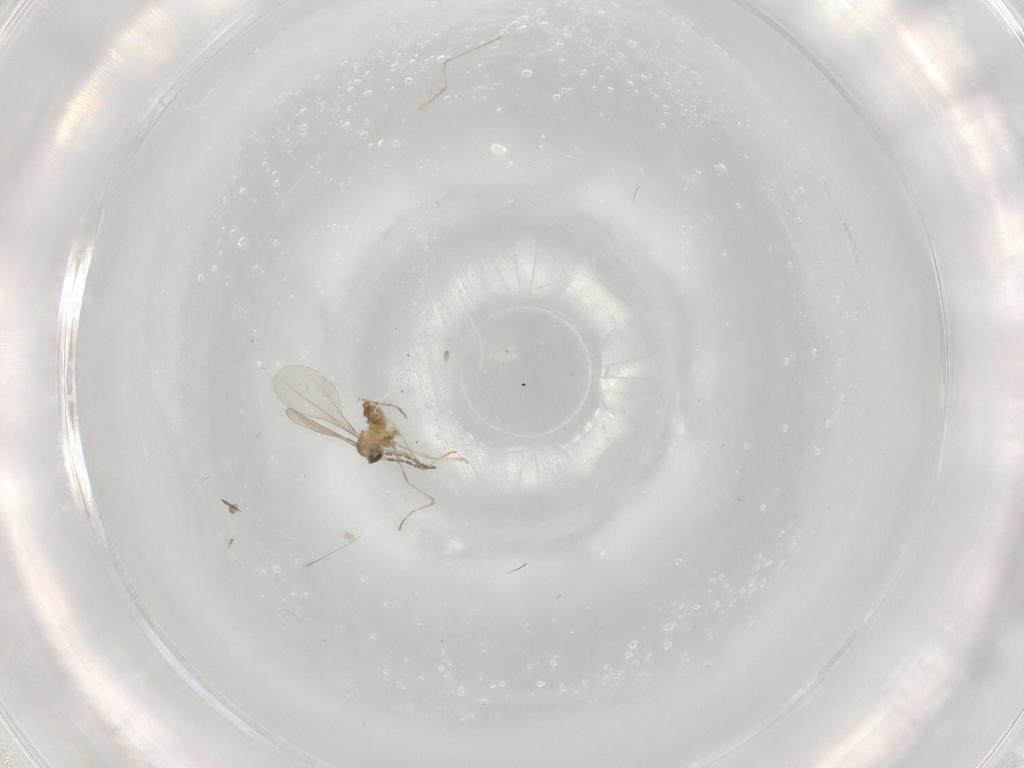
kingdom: Animalia
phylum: Arthropoda
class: Insecta
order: Diptera
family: Cecidomyiidae
